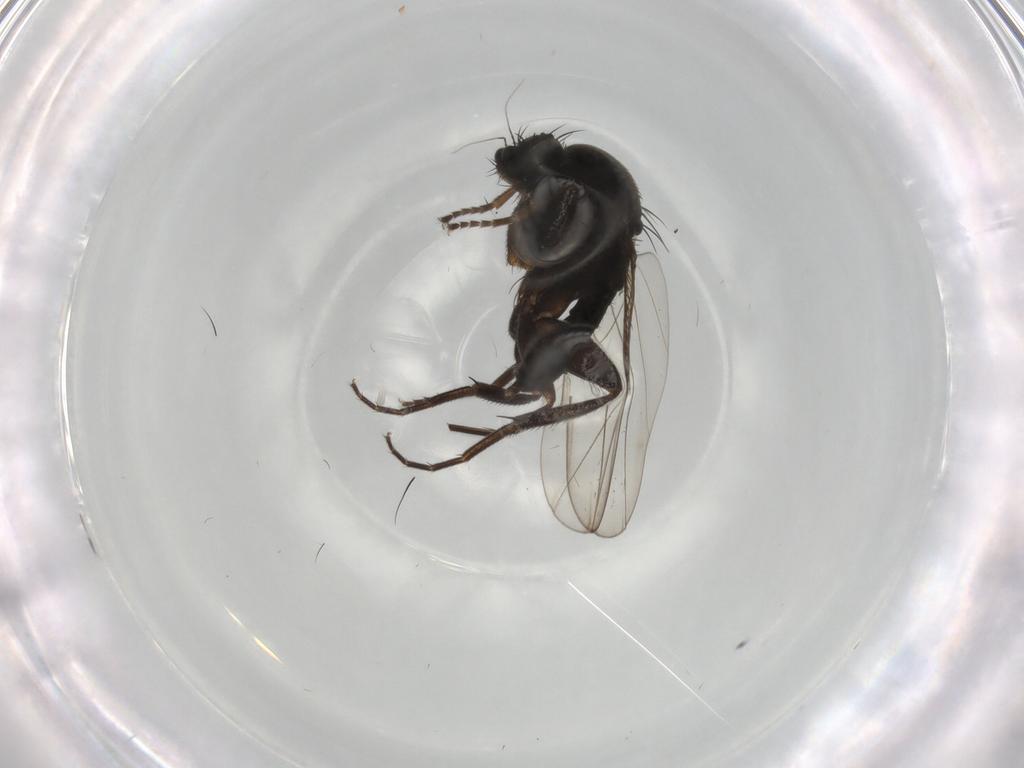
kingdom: Animalia
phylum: Arthropoda
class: Insecta
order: Diptera
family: Phoridae
